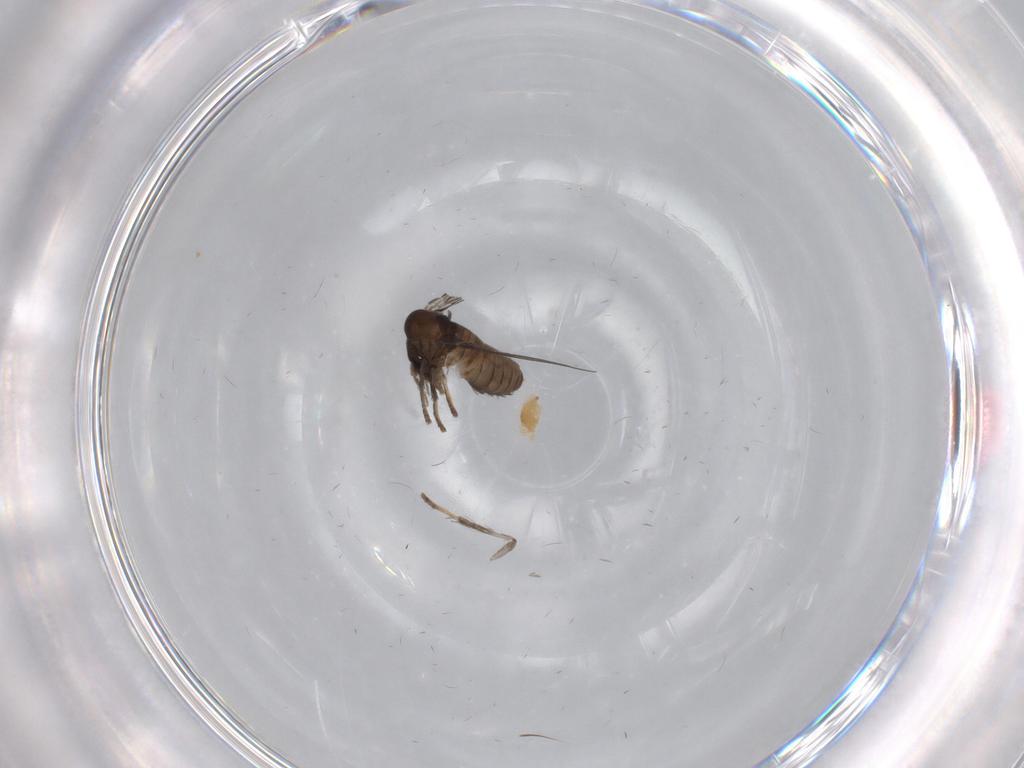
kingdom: Animalia
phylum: Arthropoda
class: Insecta
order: Diptera
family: Psychodidae
